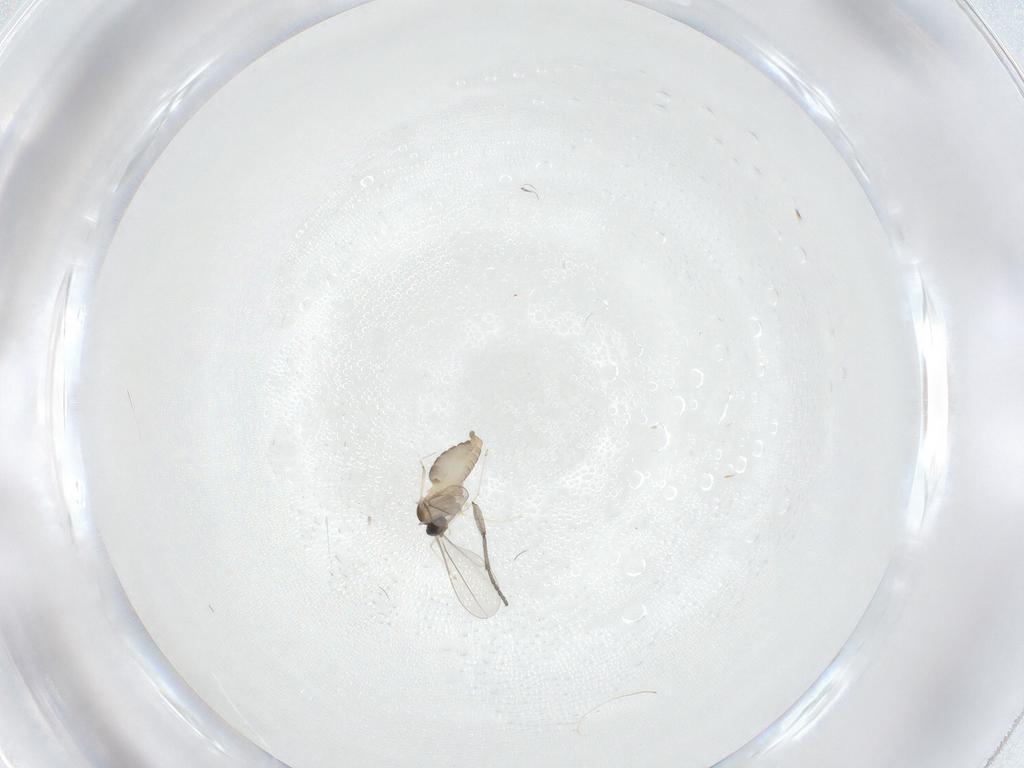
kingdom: Animalia
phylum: Arthropoda
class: Insecta
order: Diptera
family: Cecidomyiidae
